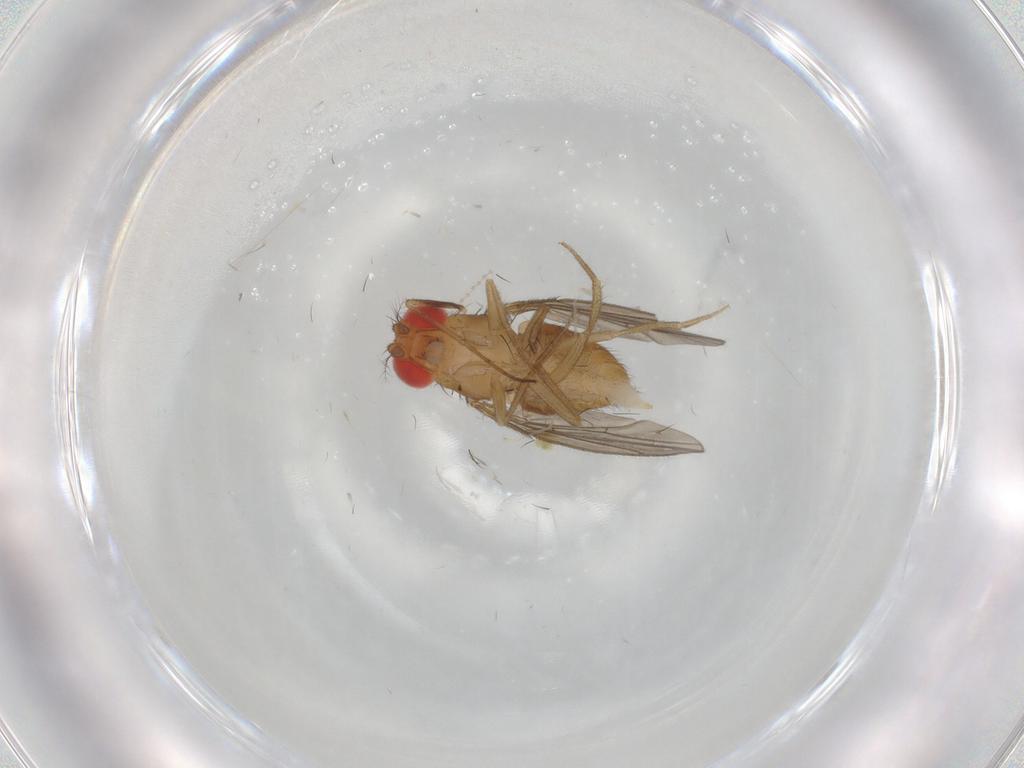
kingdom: Animalia
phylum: Arthropoda
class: Insecta
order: Diptera
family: Drosophilidae
